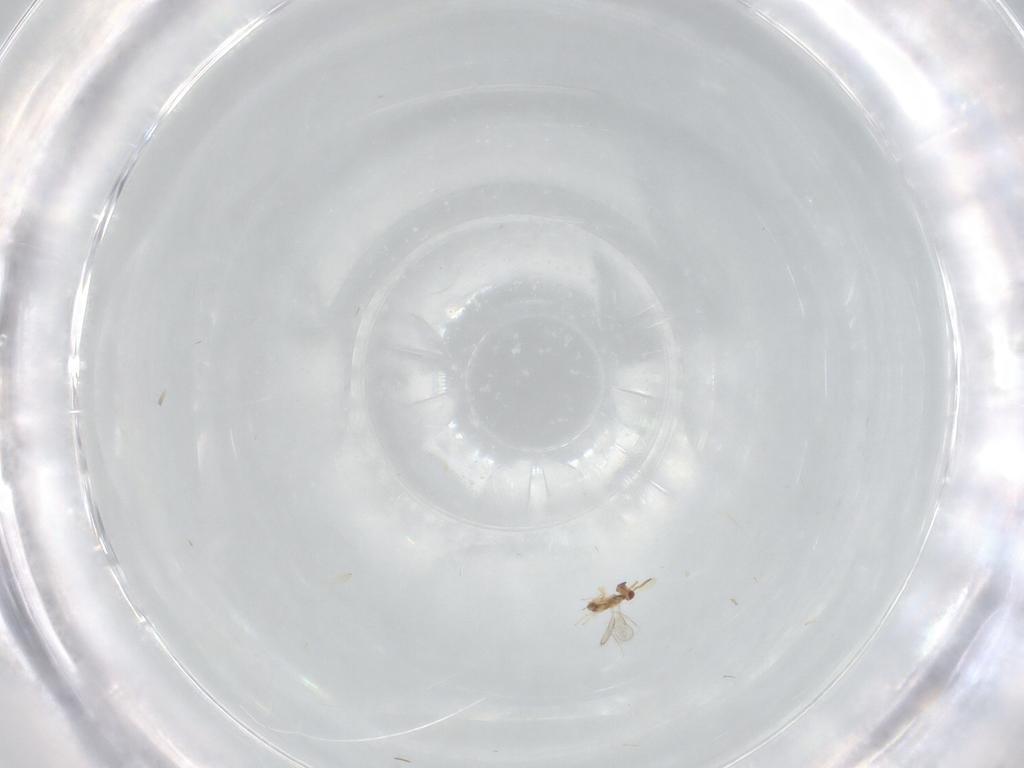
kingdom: Animalia
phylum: Arthropoda
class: Insecta
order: Hymenoptera
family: Aphelinidae
